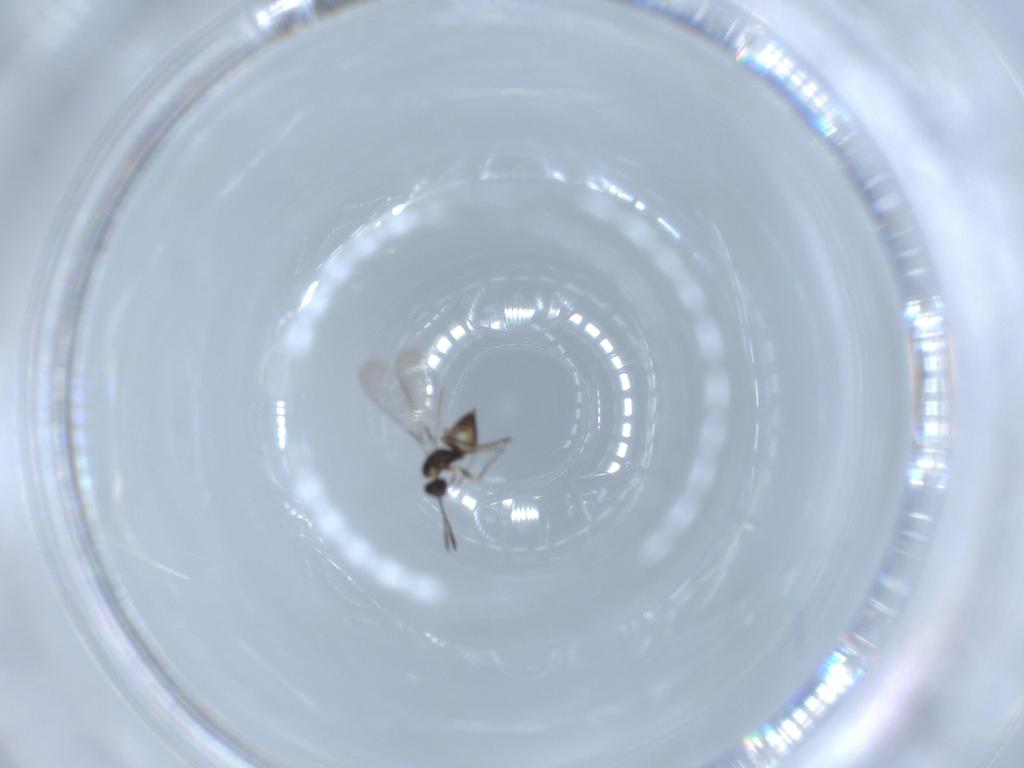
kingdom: Animalia
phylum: Arthropoda
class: Insecta
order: Hymenoptera
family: Mymaridae
